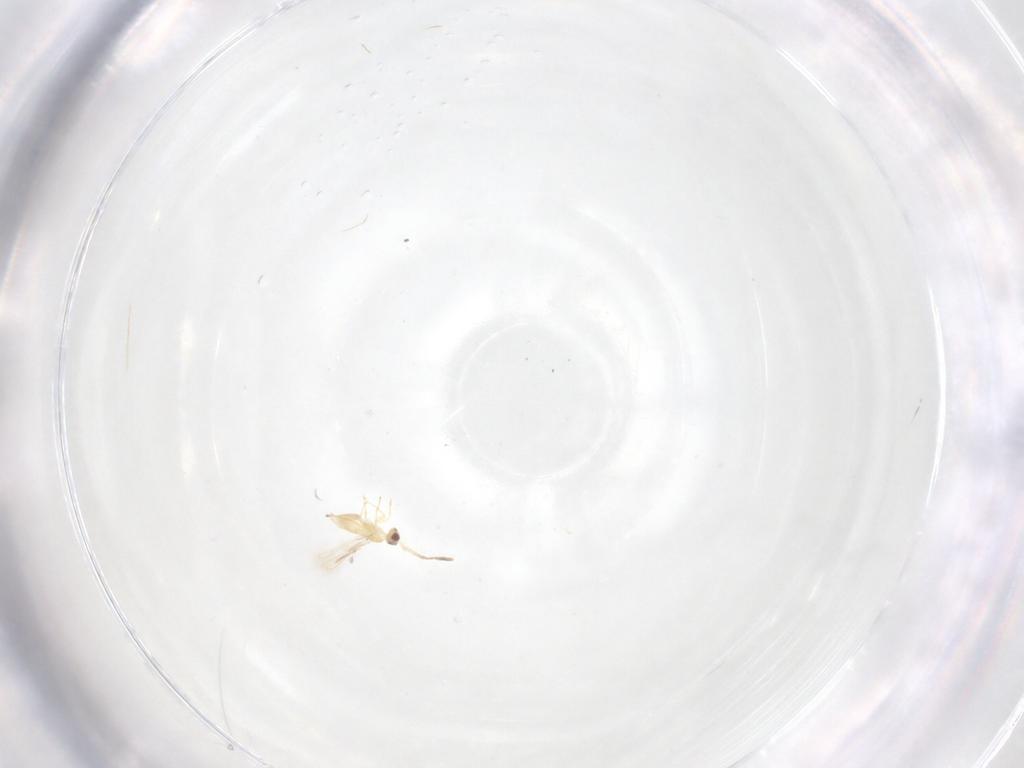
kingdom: Animalia
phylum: Arthropoda
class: Insecta
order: Hymenoptera
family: Mymaridae
